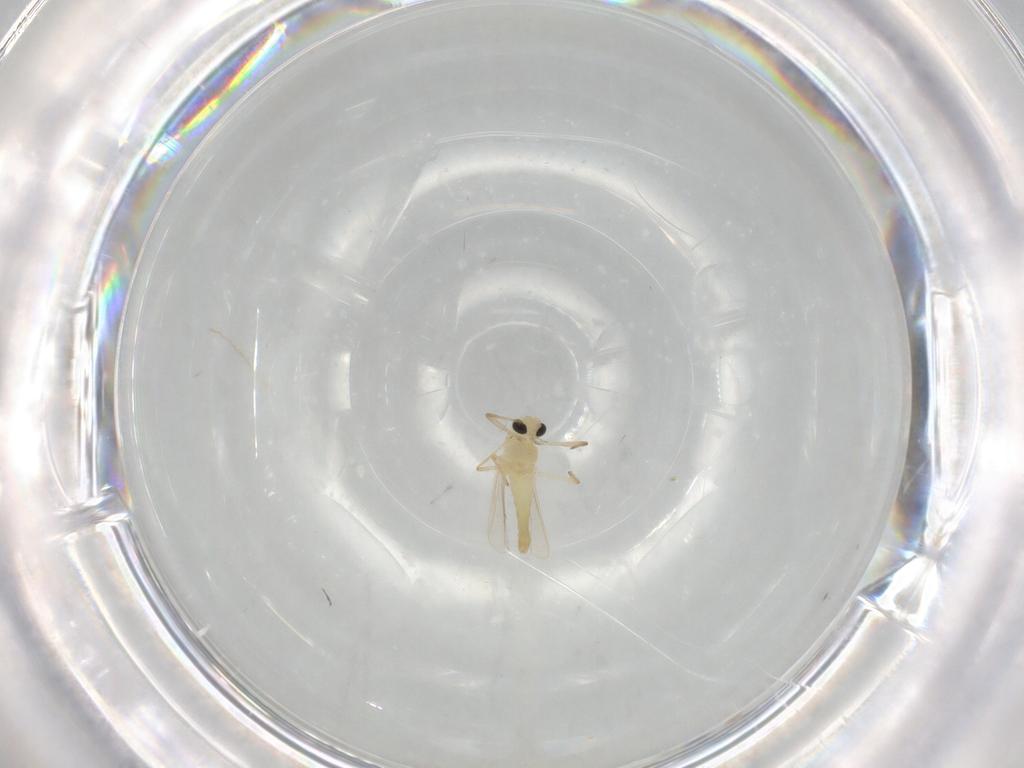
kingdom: Animalia
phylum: Arthropoda
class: Insecta
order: Diptera
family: Chironomidae
